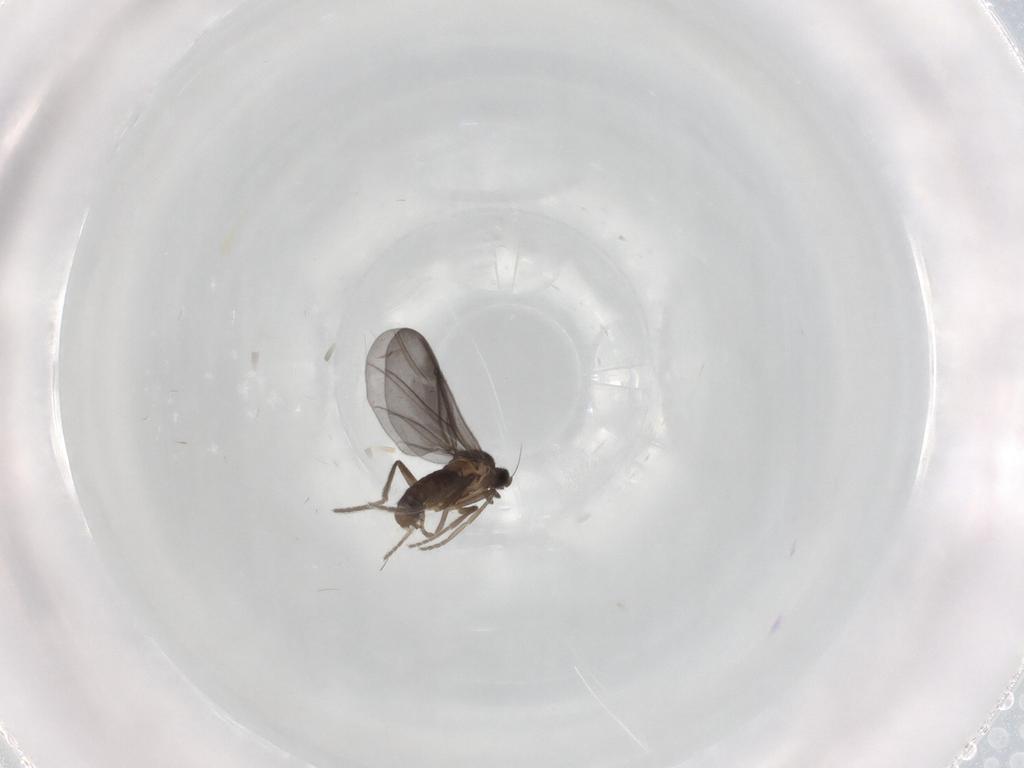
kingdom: Animalia
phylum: Arthropoda
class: Insecta
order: Diptera
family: Phoridae
